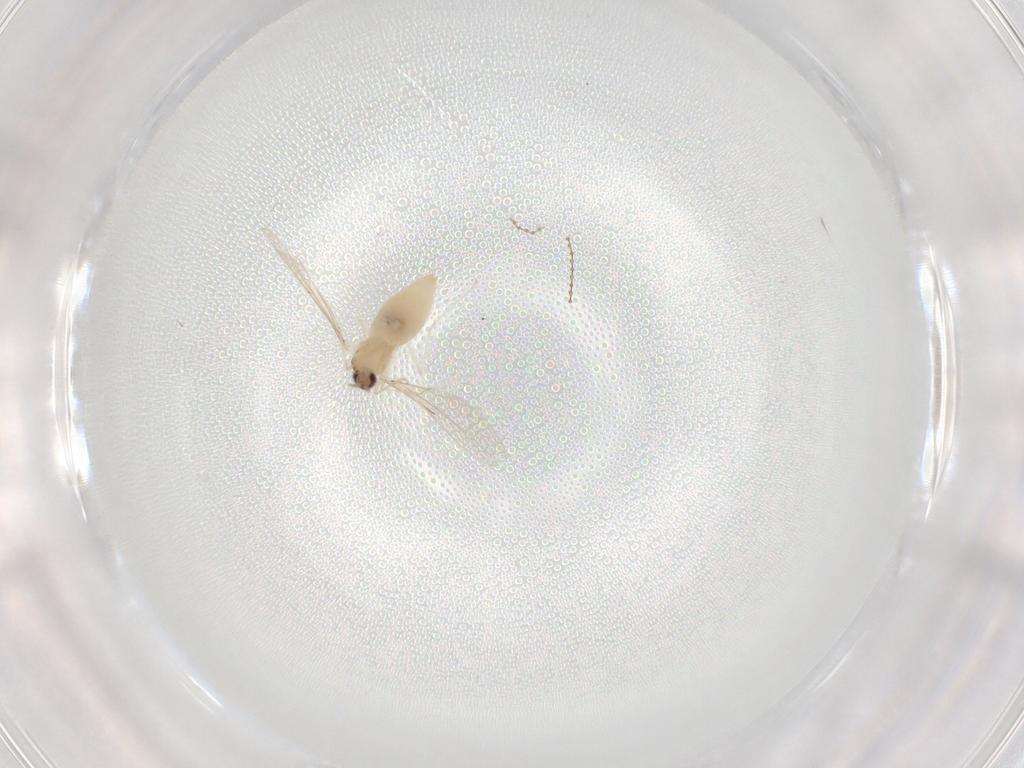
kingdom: Animalia
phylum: Arthropoda
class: Insecta
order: Diptera
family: Cecidomyiidae
